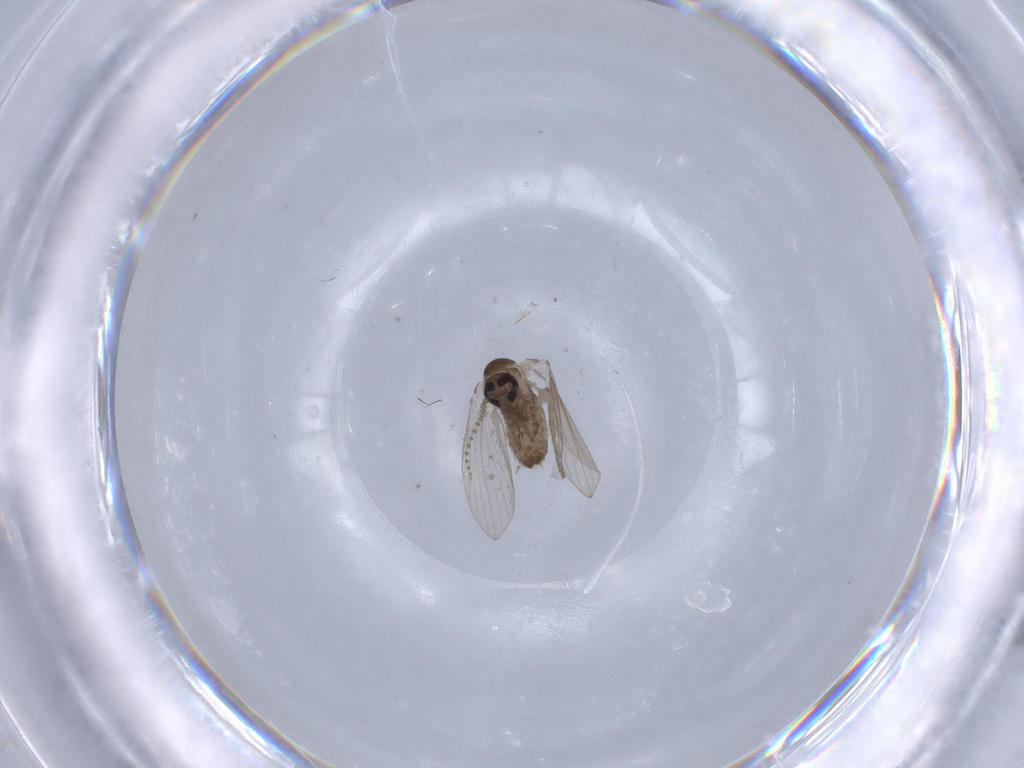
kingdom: Animalia
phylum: Arthropoda
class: Insecta
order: Diptera
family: Psychodidae
